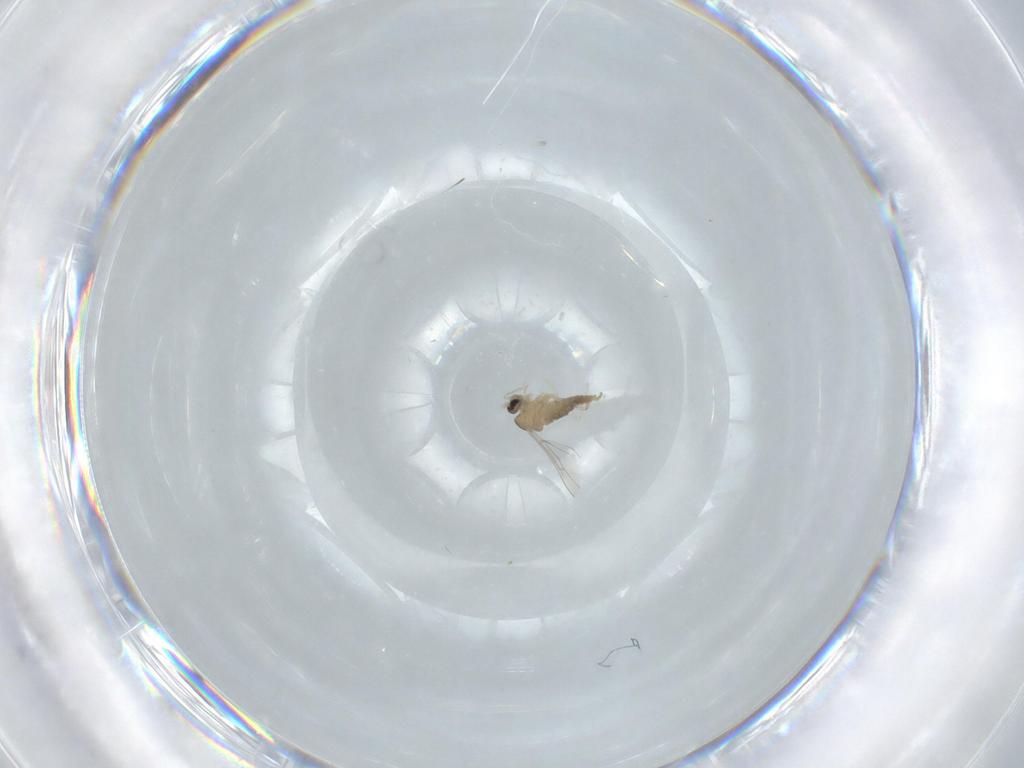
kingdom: Animalia
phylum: Arthropoda
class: Insecta
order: Diptera
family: Cecidomyiidae
